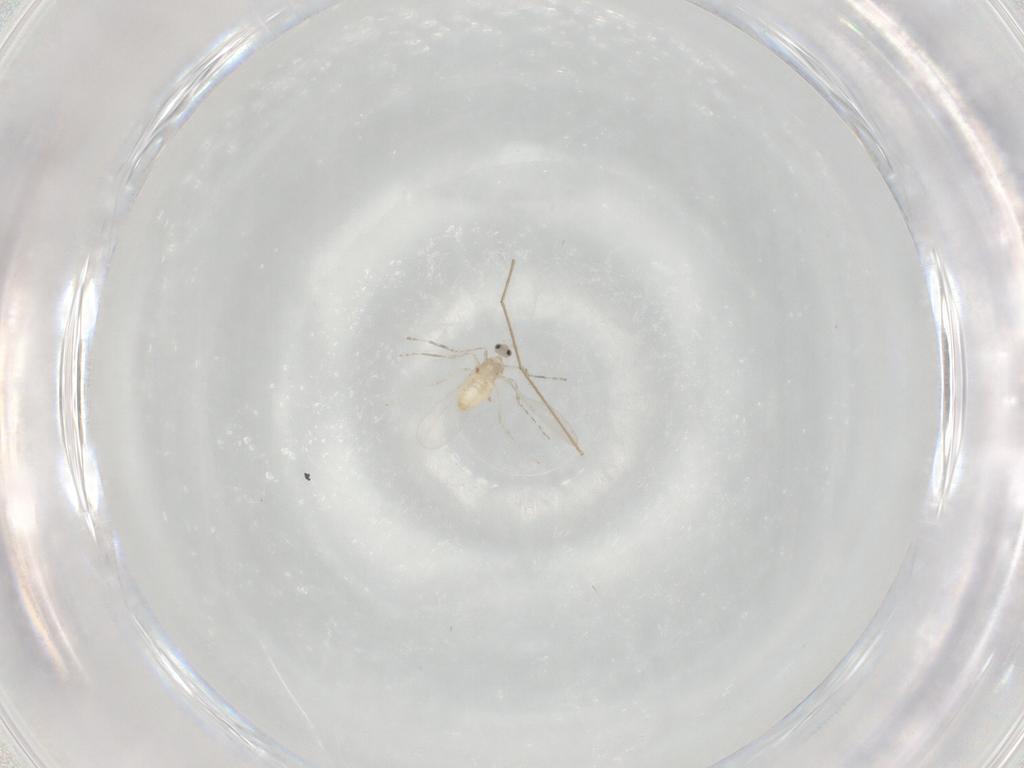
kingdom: Animalia
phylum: Arthropoda
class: Insecta
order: Diptera
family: Cecidomyiidae
